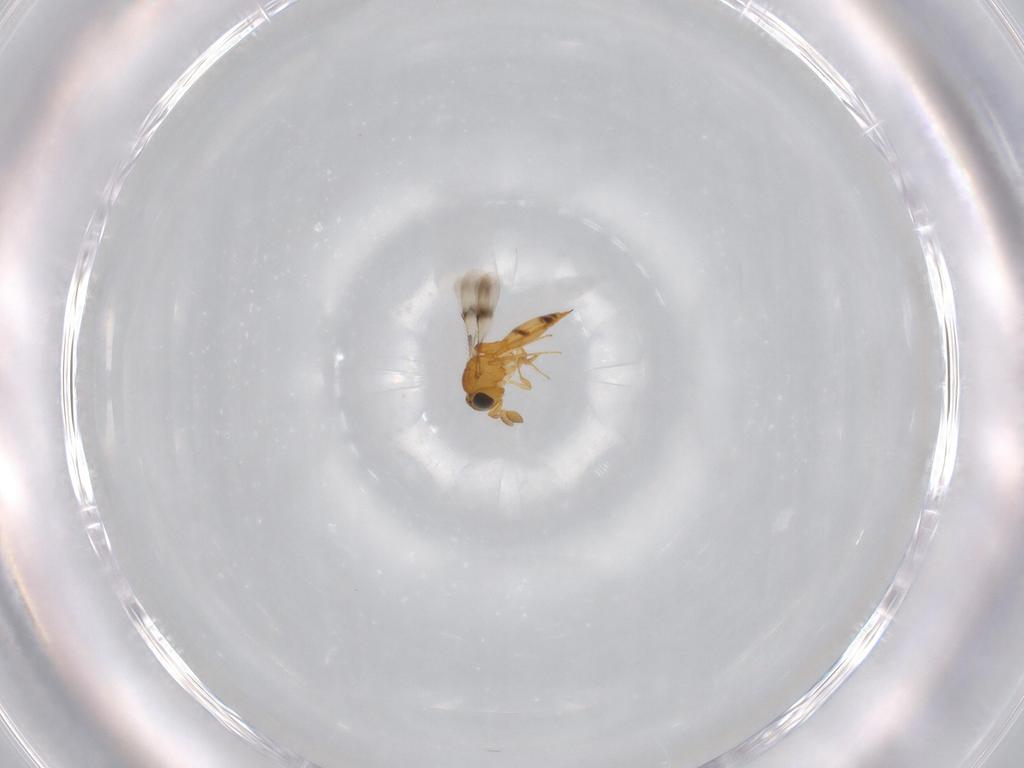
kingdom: Animalia
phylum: Arthropoda
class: Insecta
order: Hymenoptera
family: Scelionidae
